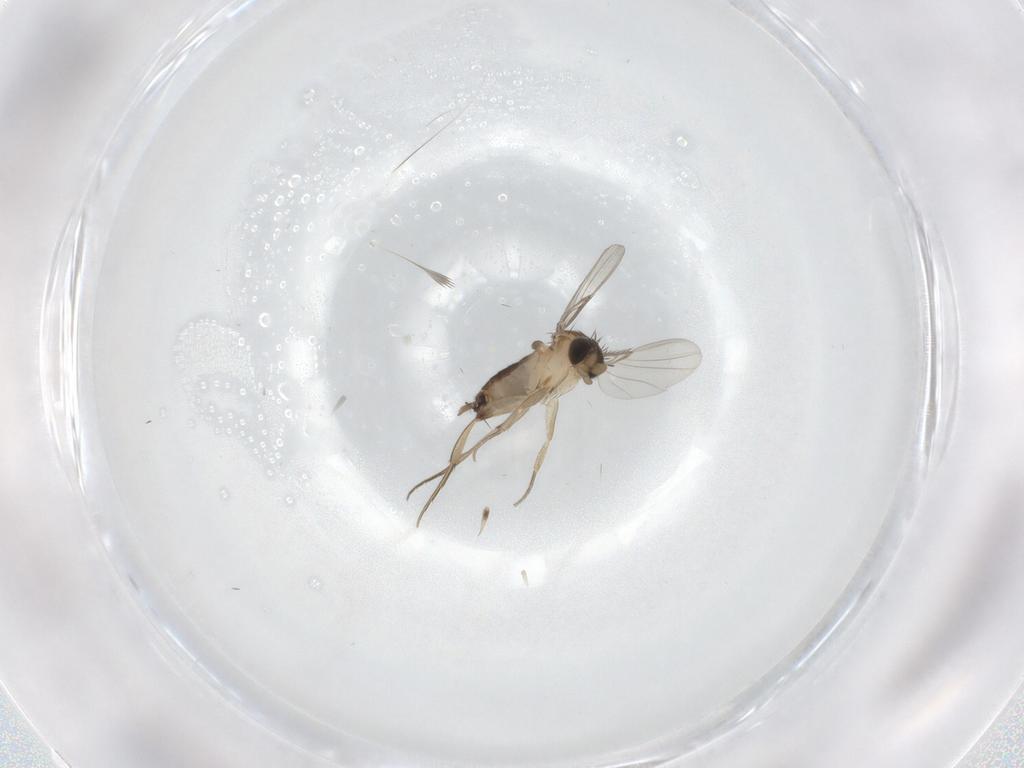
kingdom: Animalia
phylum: Arthropoda
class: Insecta
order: Diptera
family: Phoridae
